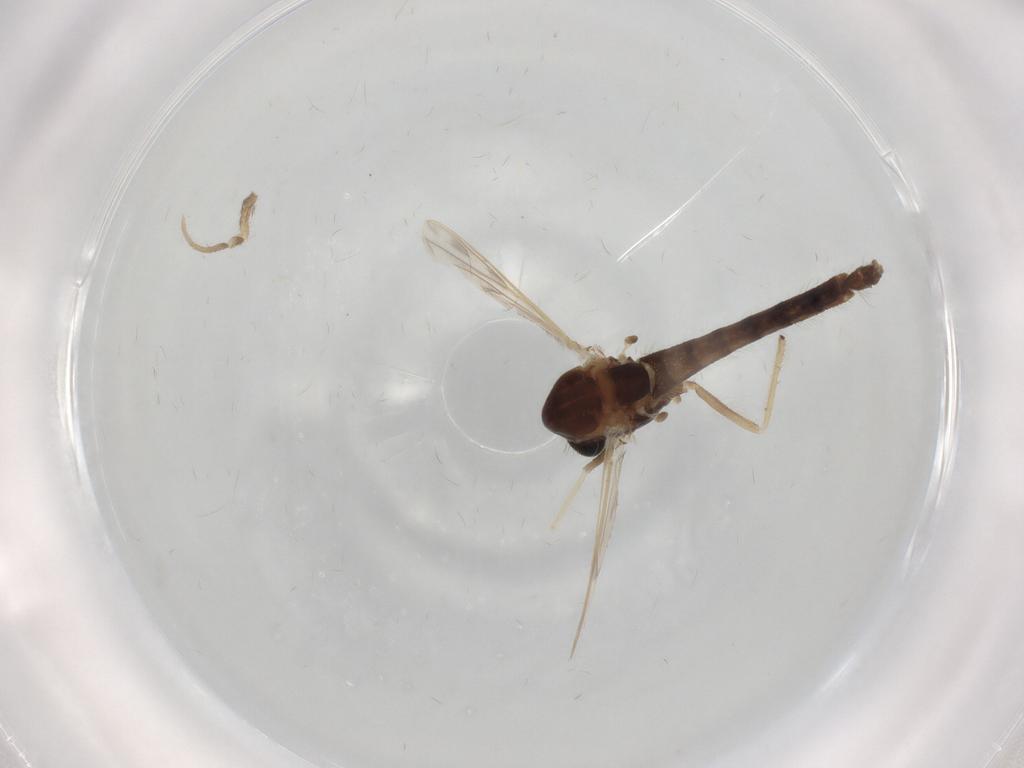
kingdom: Animalia
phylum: Arthropoda
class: Insecta
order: Diptera
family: Chironomidae
